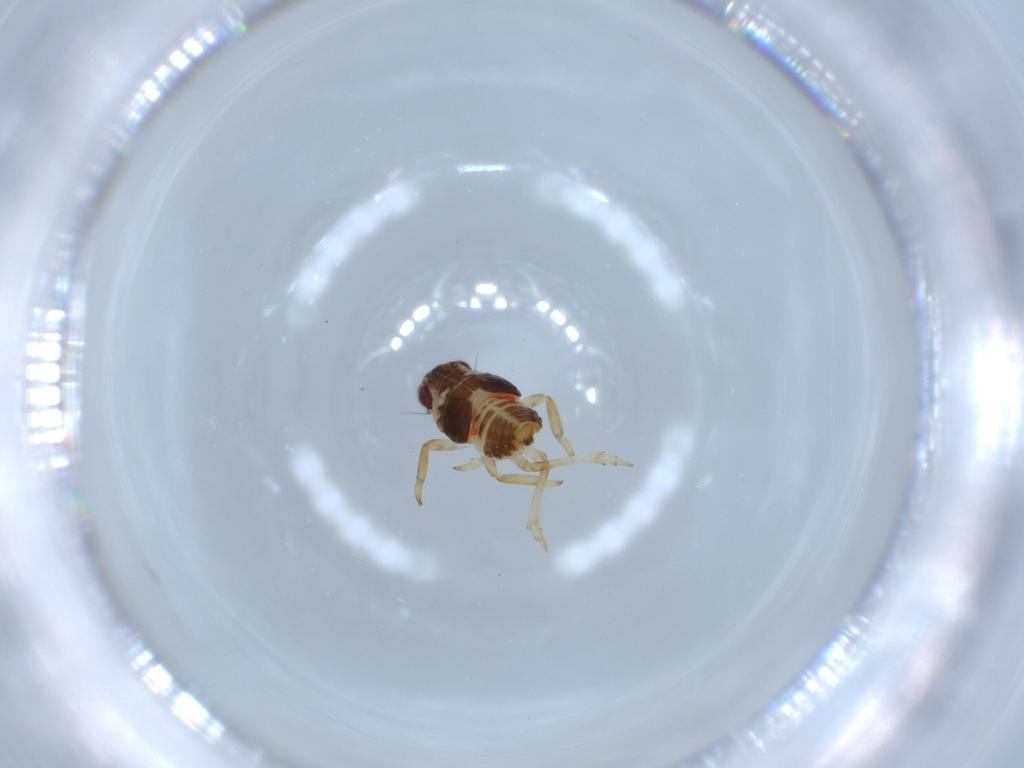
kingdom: Animalia
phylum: Arthropoda
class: Insecta
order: Hemiptera
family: Issidae
